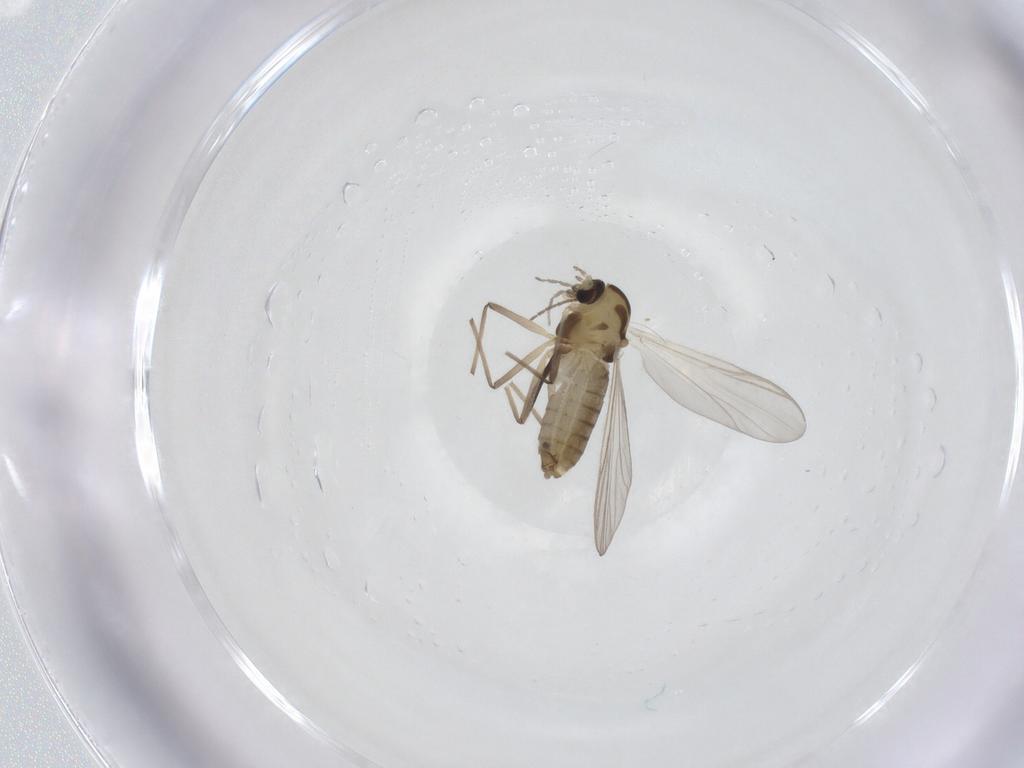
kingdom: Animalia
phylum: Arthropoda
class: Insecta
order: Diptera
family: Chironomidae
